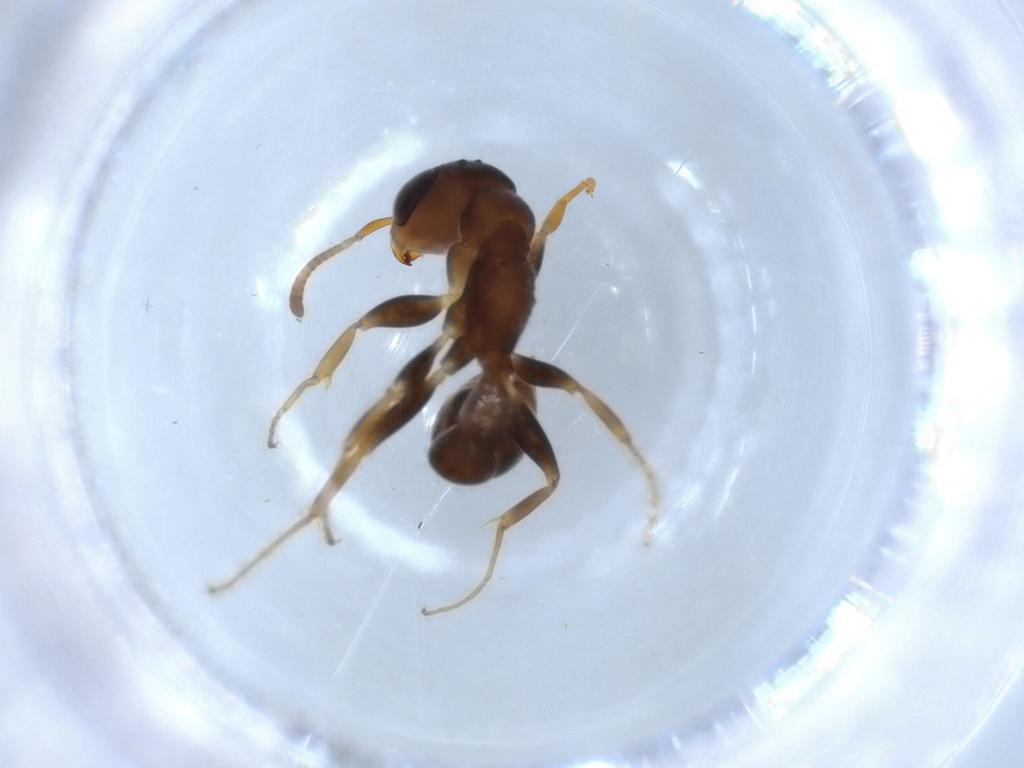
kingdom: Animalia
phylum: Arthropoda
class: Insecta
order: Hymenoptera
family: Formicidae
